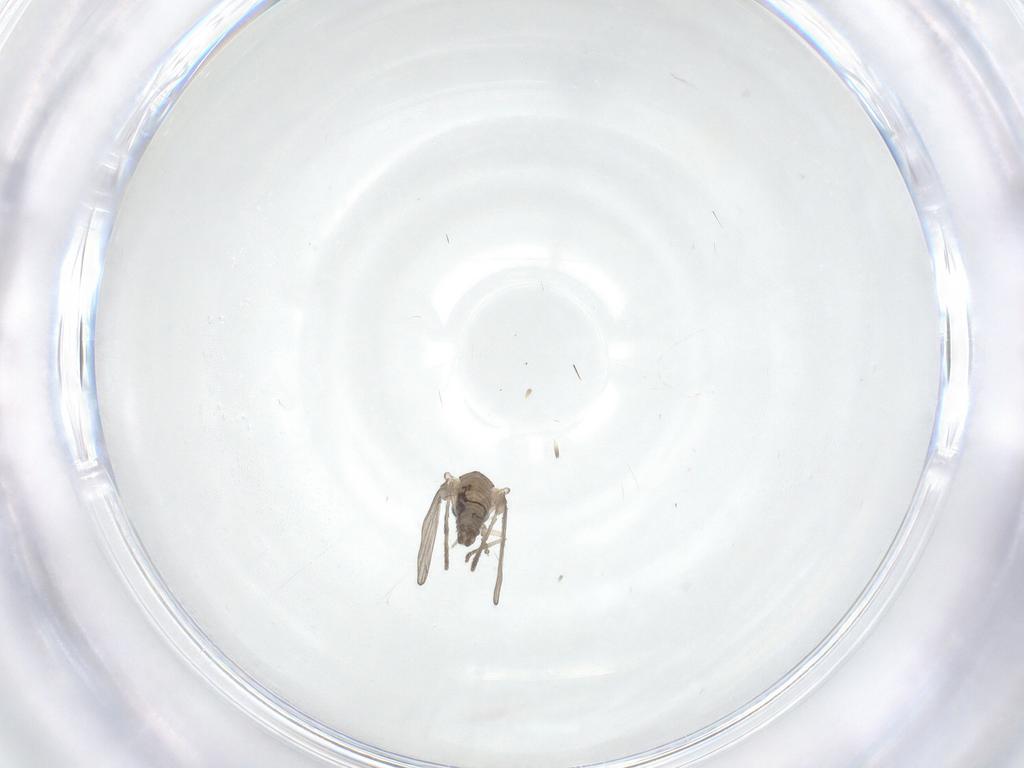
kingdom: Animalia
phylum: Arthropoda
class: Insecta
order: Diptera
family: Psychodidae
